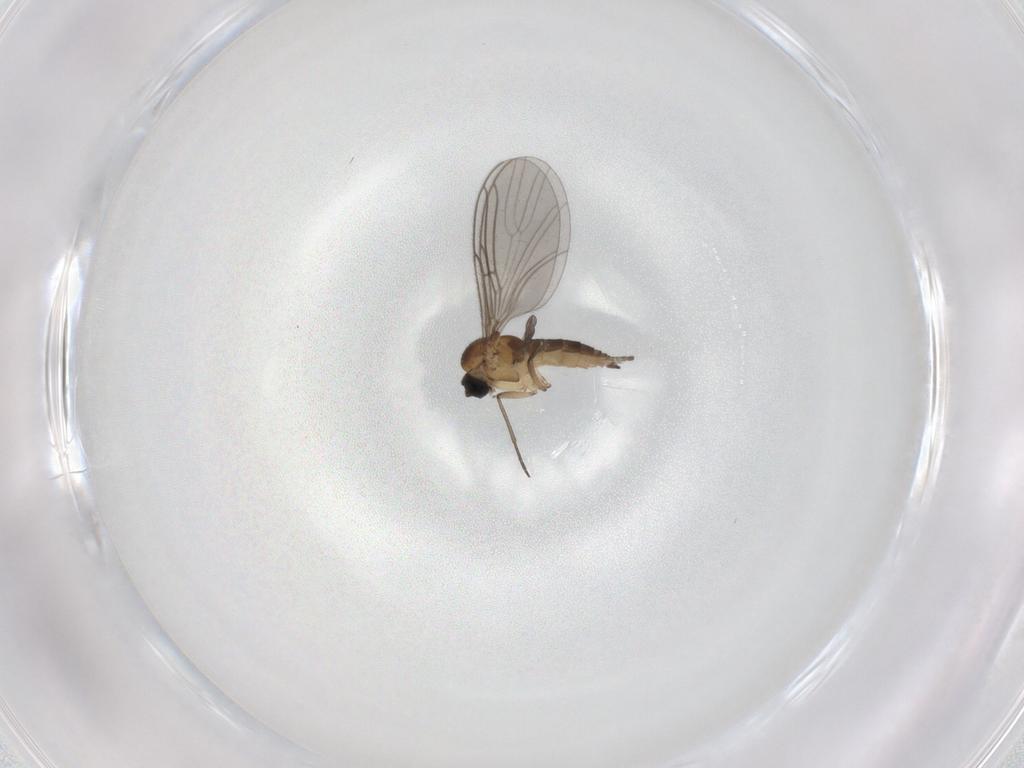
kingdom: Animalia
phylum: Arthropoda
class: Insecta
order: Diptera
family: Sciaridae
